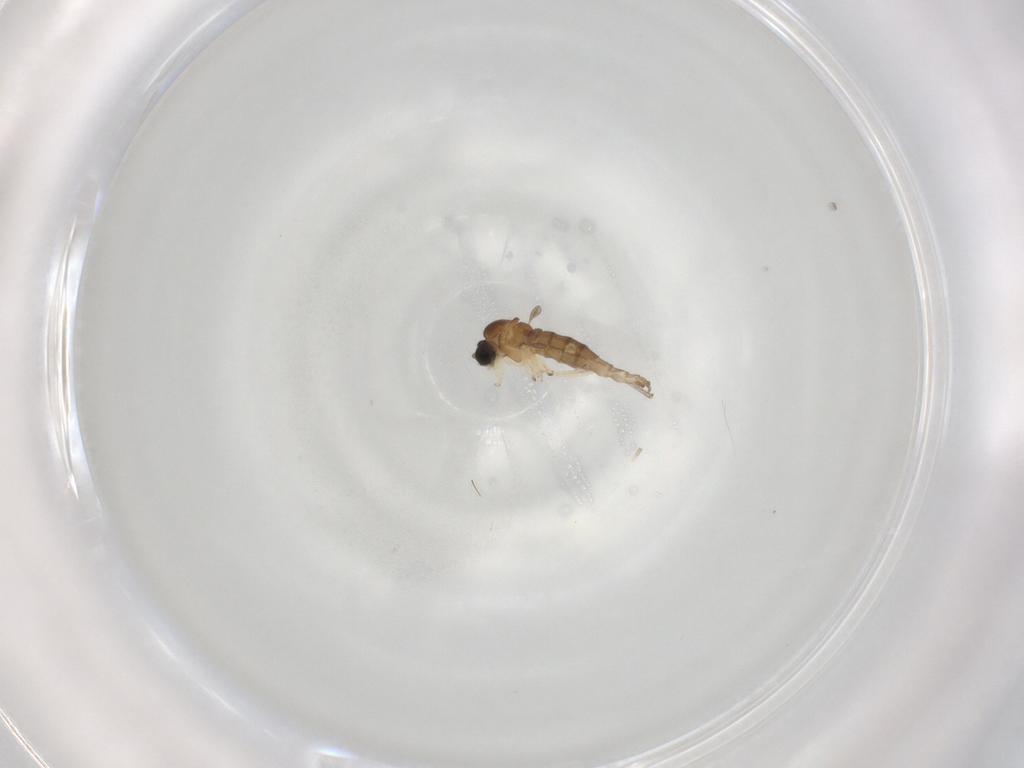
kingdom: Animalia
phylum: Arthropoda
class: Insecta
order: Diptera
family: Sciaridae
